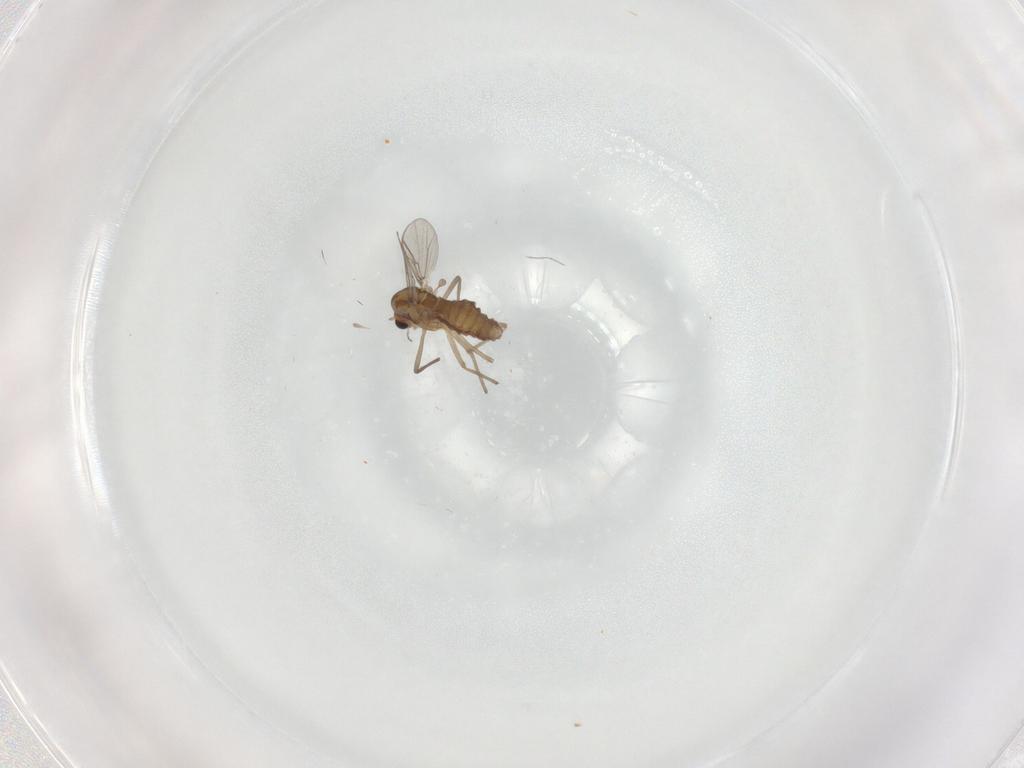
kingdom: Animalia
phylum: Arthropoda
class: Insecta
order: Diptera
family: Chironomidae
